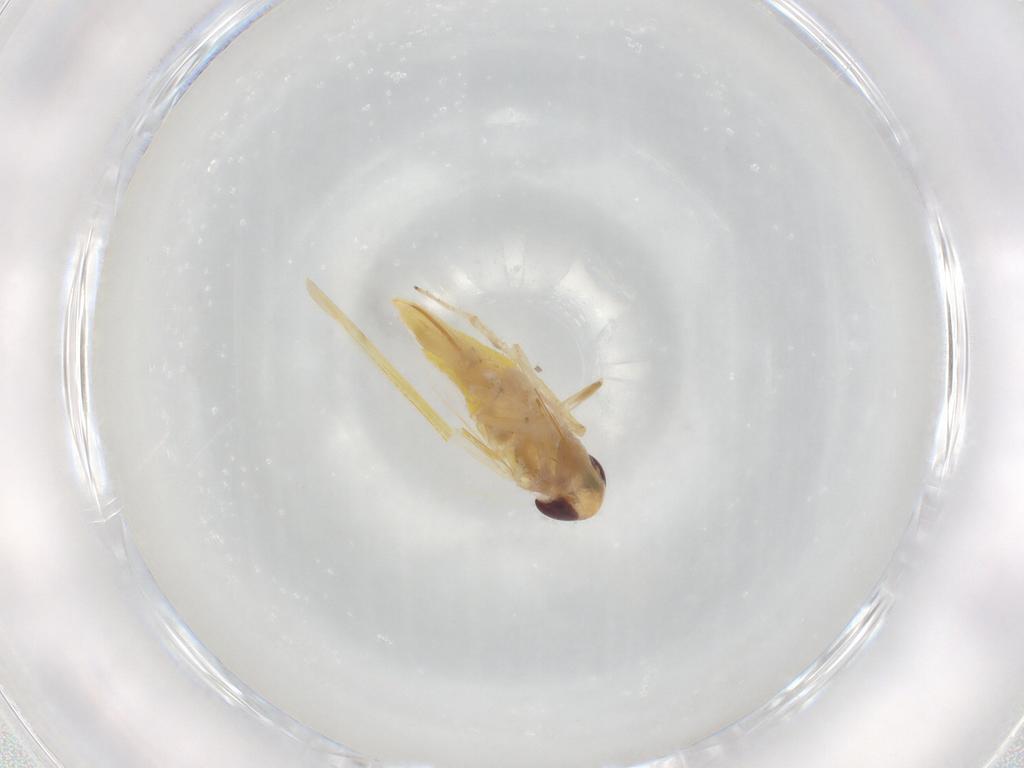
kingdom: Animalia
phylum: Arthropoda
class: Insecta
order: Hemiptera
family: Cicadellidae
